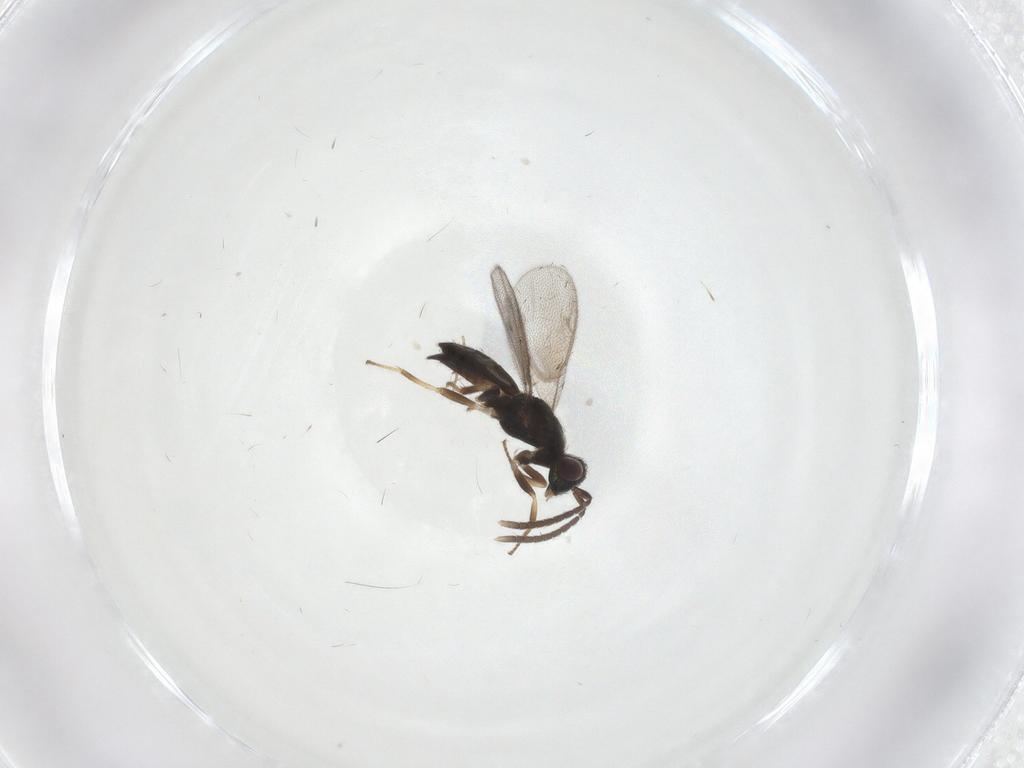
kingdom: Animalia
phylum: Arthropoda
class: Insecta
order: Hymenoptera
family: Eupelmidae
